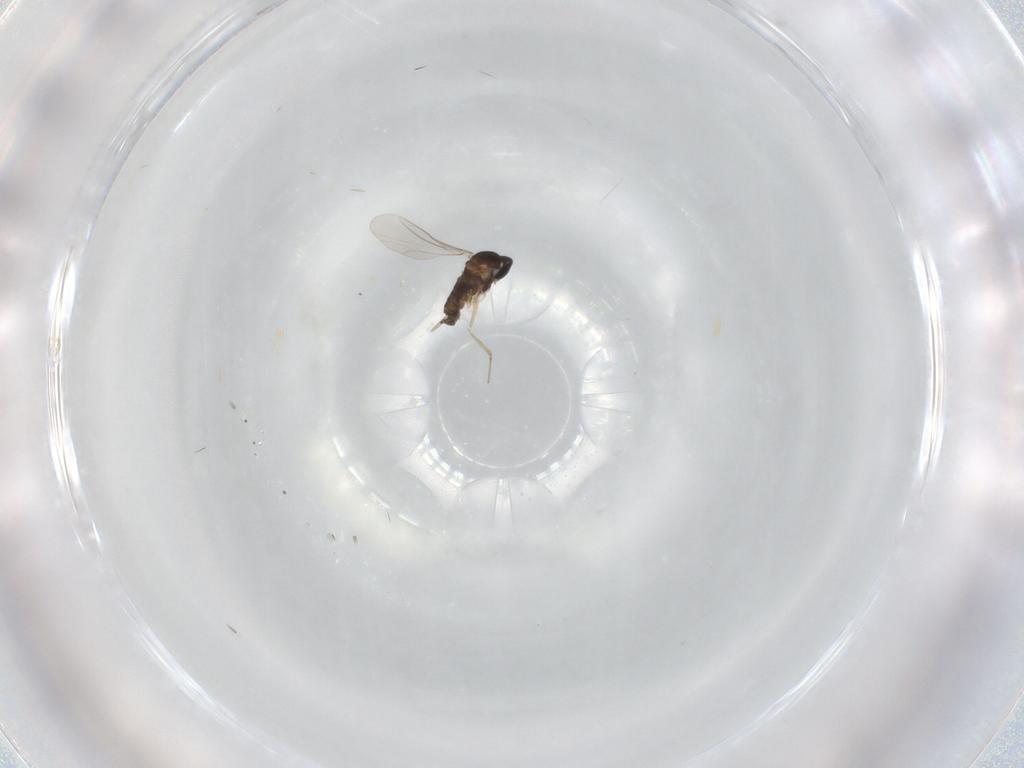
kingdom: Animalia
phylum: Arthropoda
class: Insecta
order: Diptera
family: Cecidomyiidae
